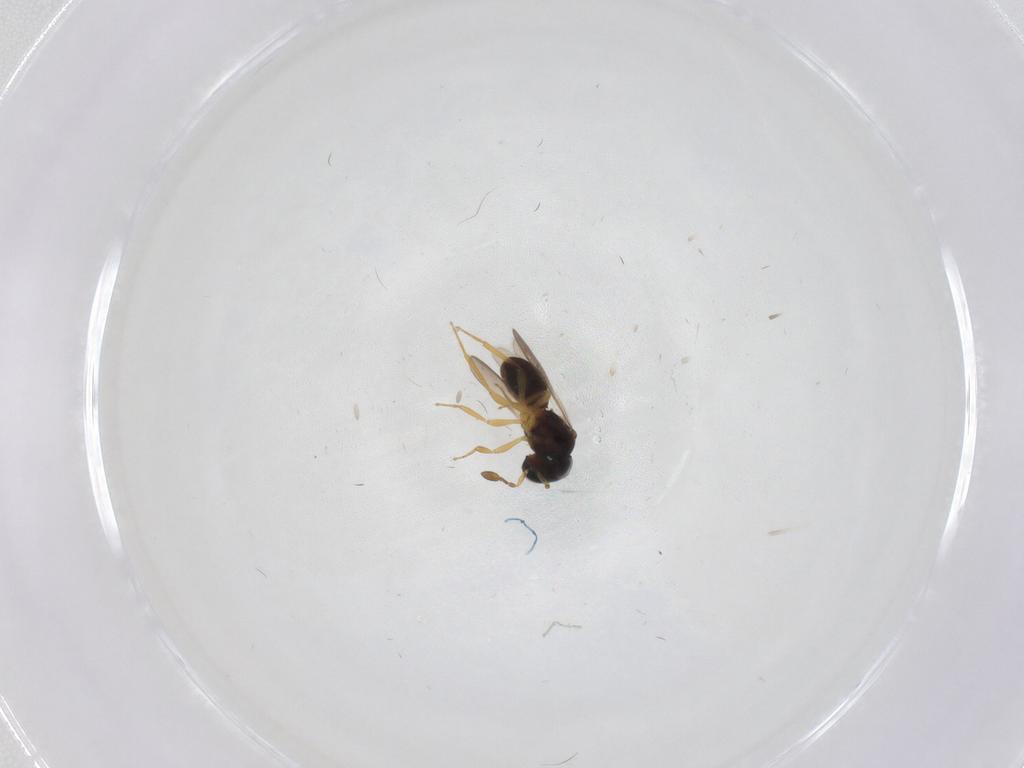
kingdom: Animalia
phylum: Arthropoda
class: Insecta
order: Hymenoptera
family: Scelionidae
